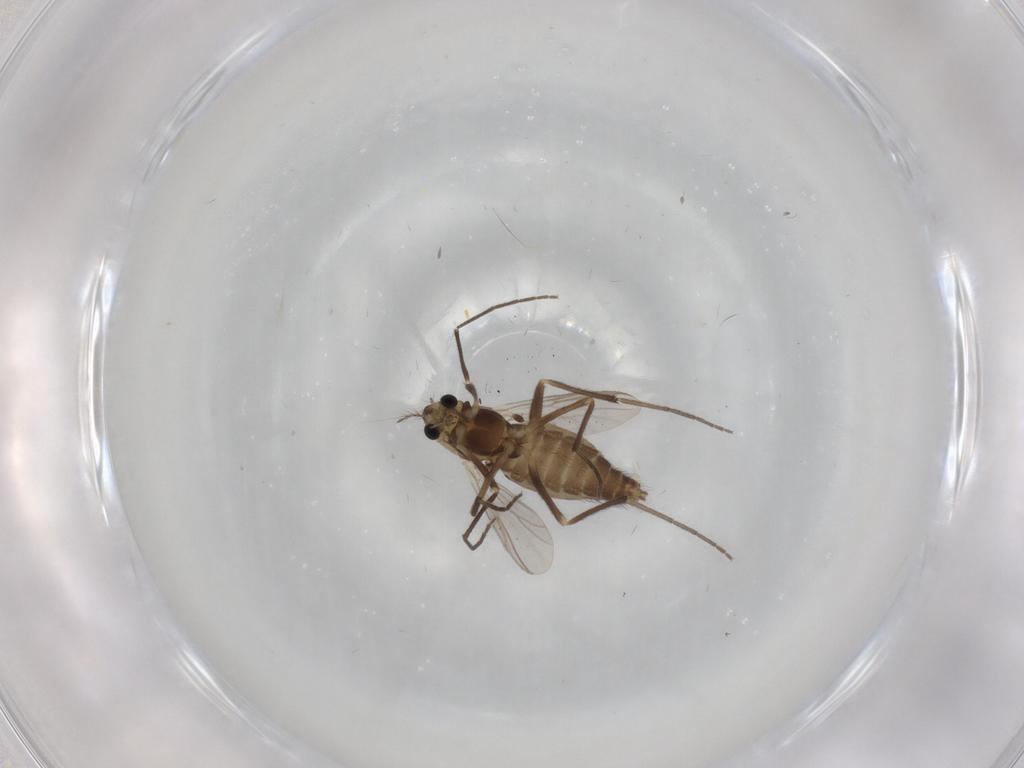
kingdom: Animalia
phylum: Arthropoda
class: Insecta
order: Diptera
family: Chironomidae
